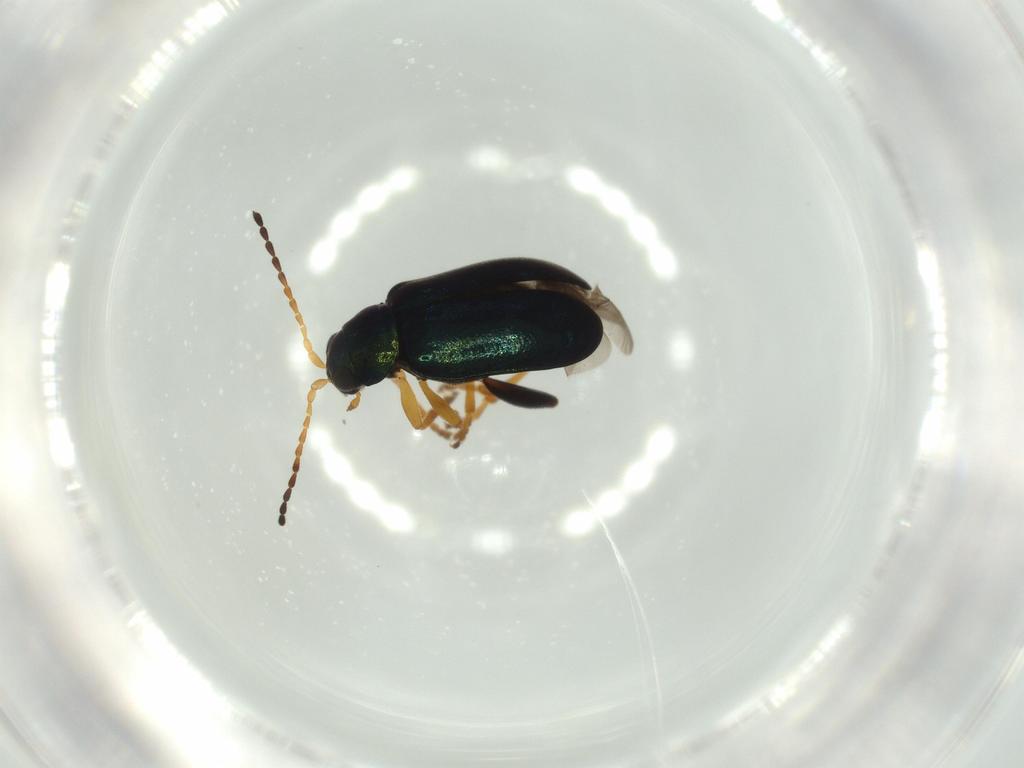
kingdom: Animalia
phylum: Arthropoda
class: Insecta
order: Coleoptera
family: Chrysomelidae
